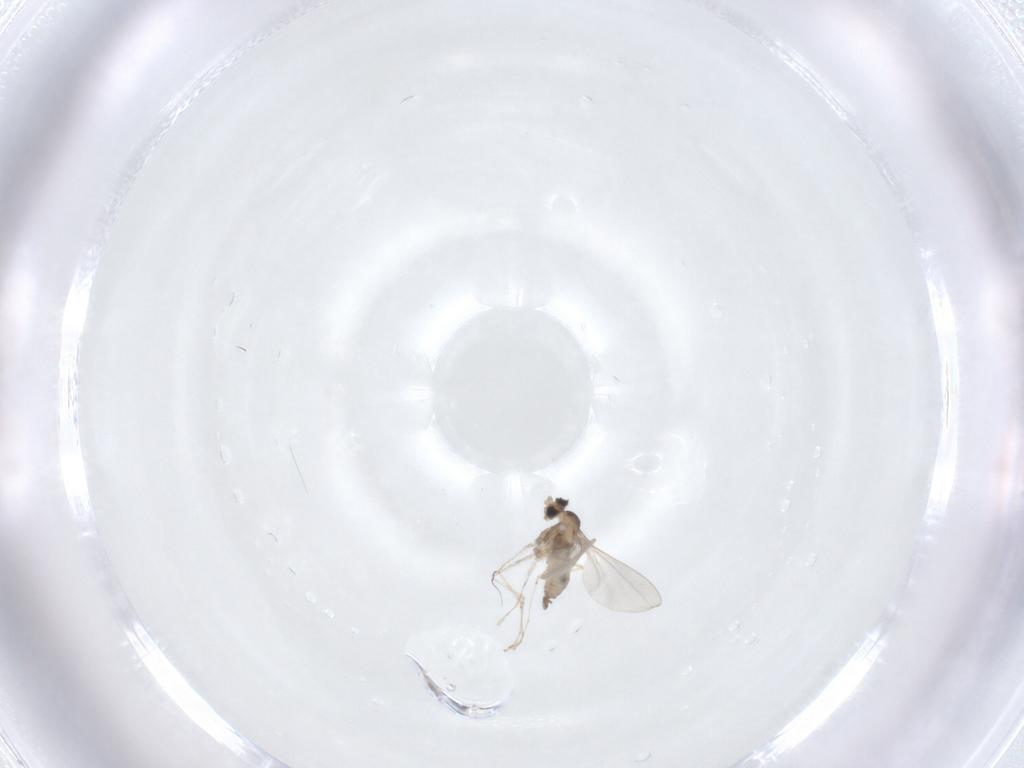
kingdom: Animalia
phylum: Arthropoda
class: Insecta
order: Diptera
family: Cecidomyiidae
